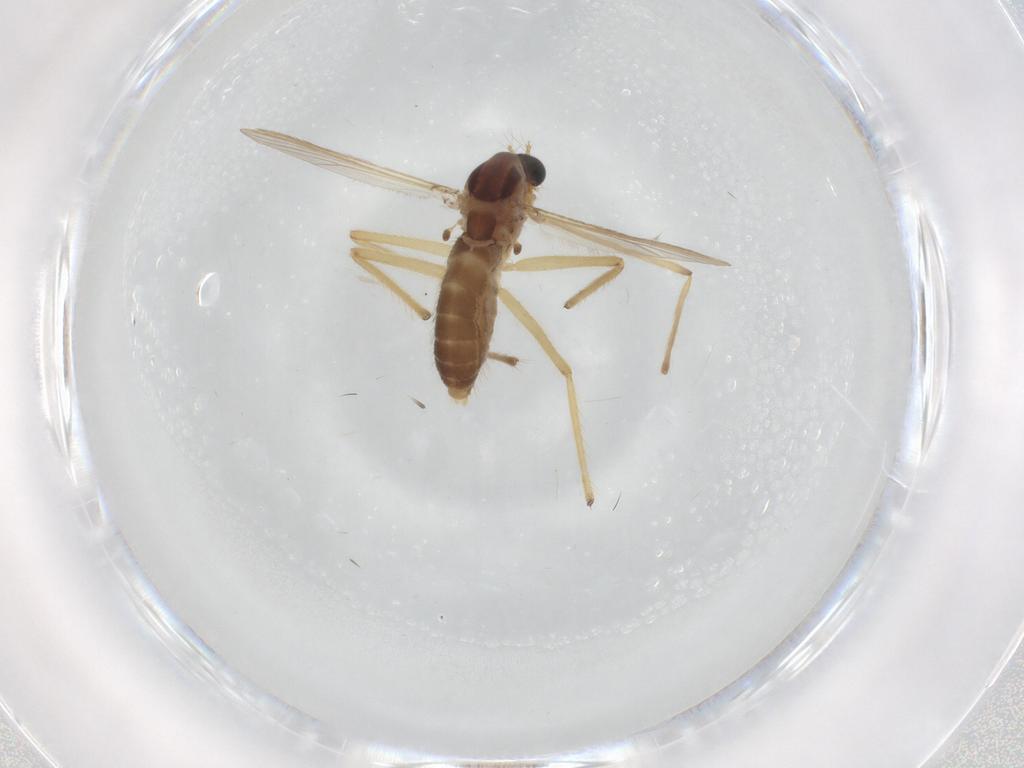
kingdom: Animalia
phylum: Arthropoda
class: Insecta
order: Diptera
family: Chironomidae
